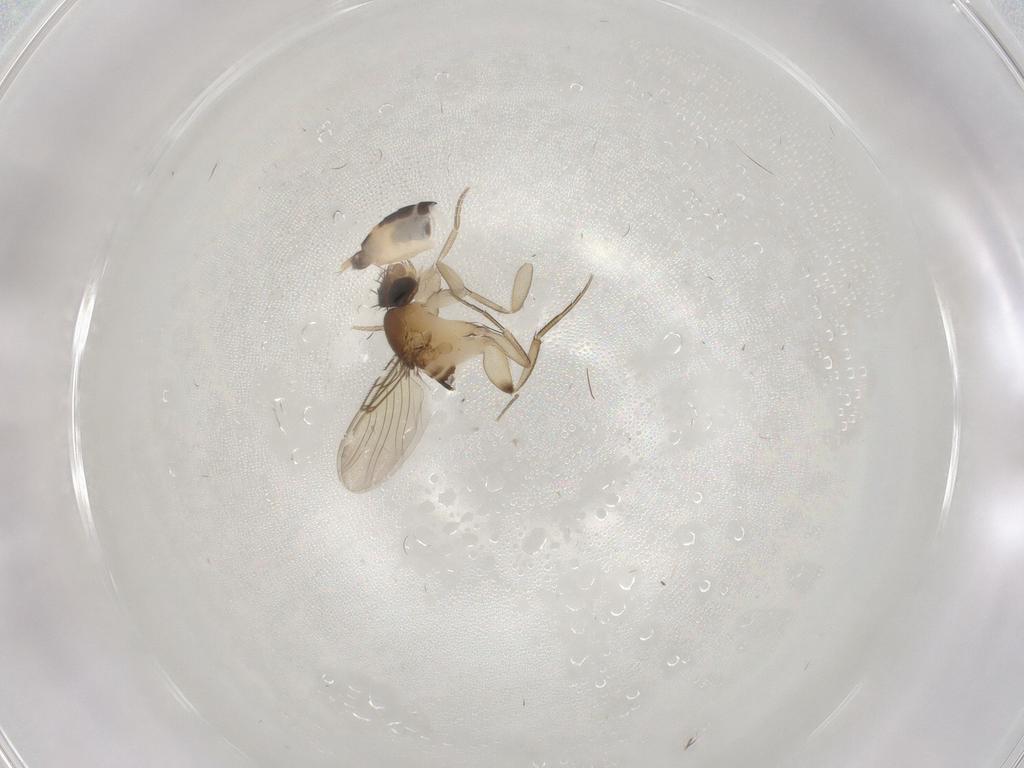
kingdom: Animalia
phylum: Arthropoda
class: Insecta
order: Diptera
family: Phoridae
